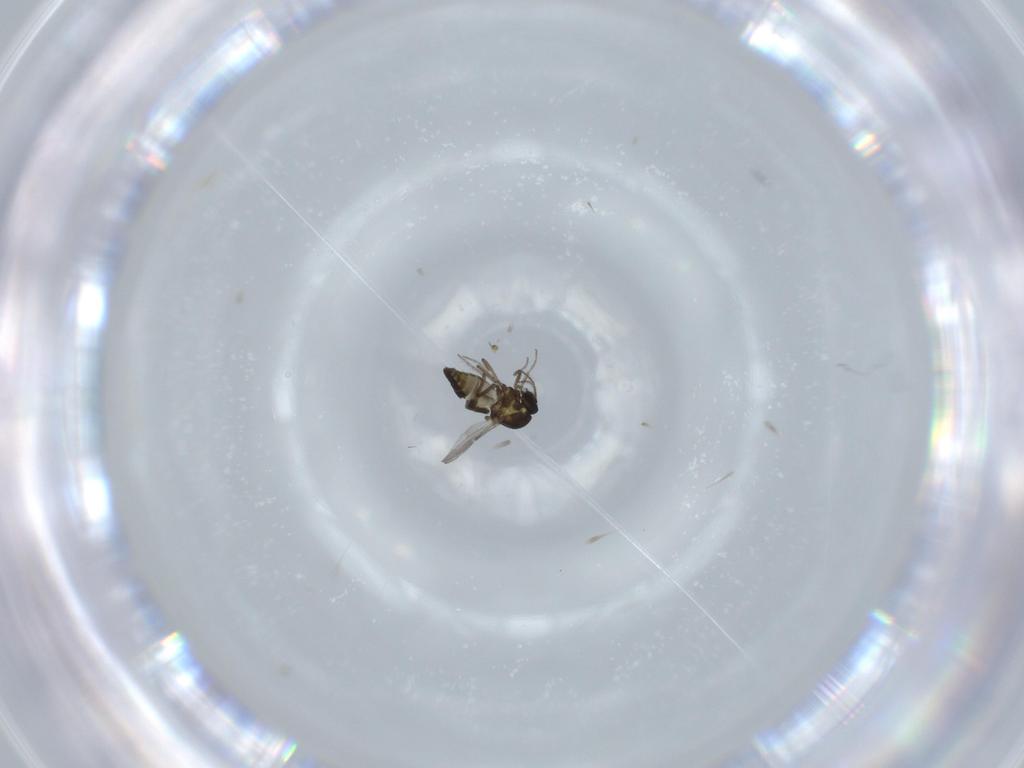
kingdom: Animalia
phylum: Arthropoda
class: Insecta
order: Diptera
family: Ceratopogonidae
